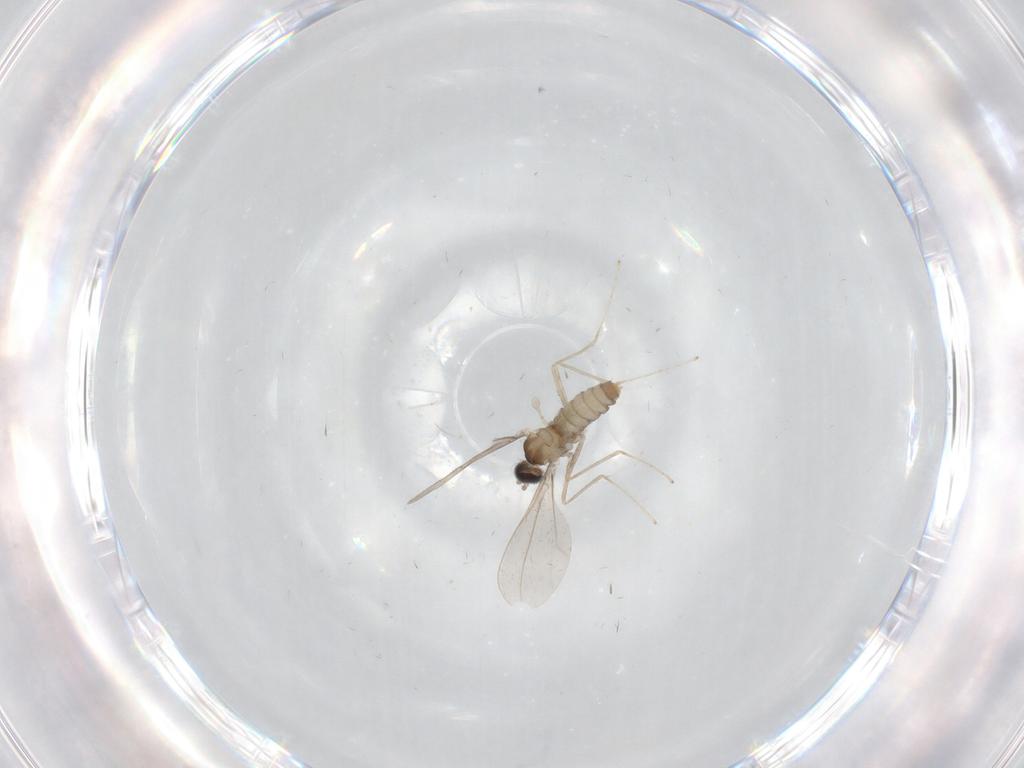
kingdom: Animalia
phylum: Arthropoda
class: Insecta
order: Diptera
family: Cecidomyiidae
